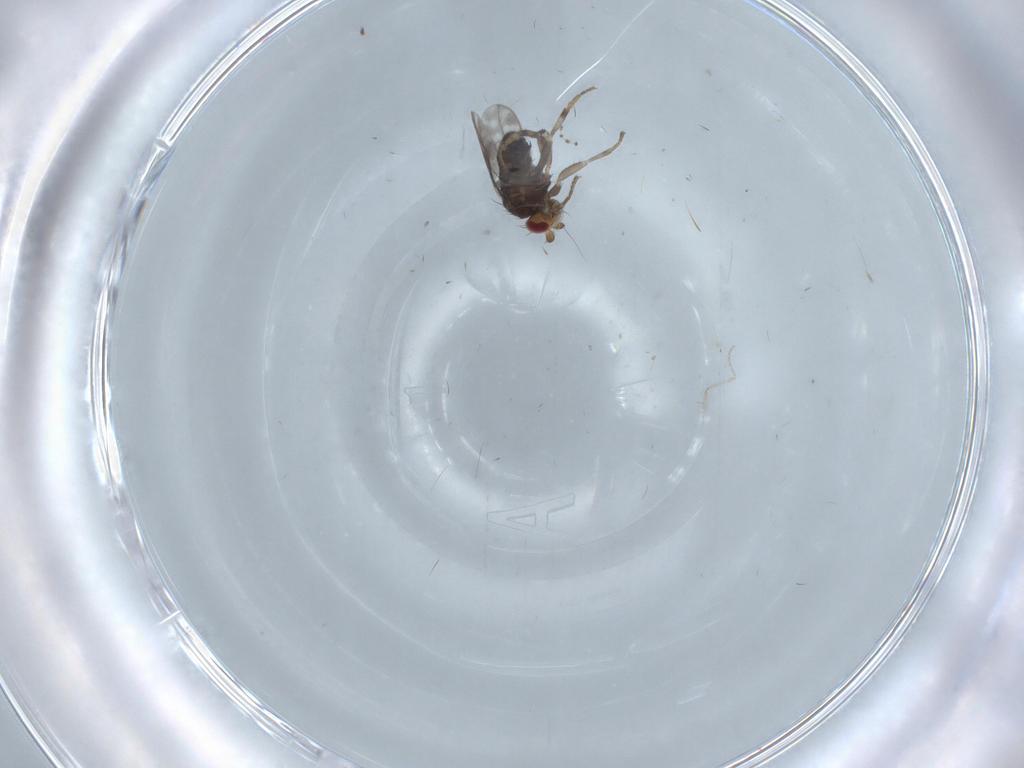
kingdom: Animalia
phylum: Arthropoda
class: Insecta
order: Diptera
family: Sphaeroceridae
